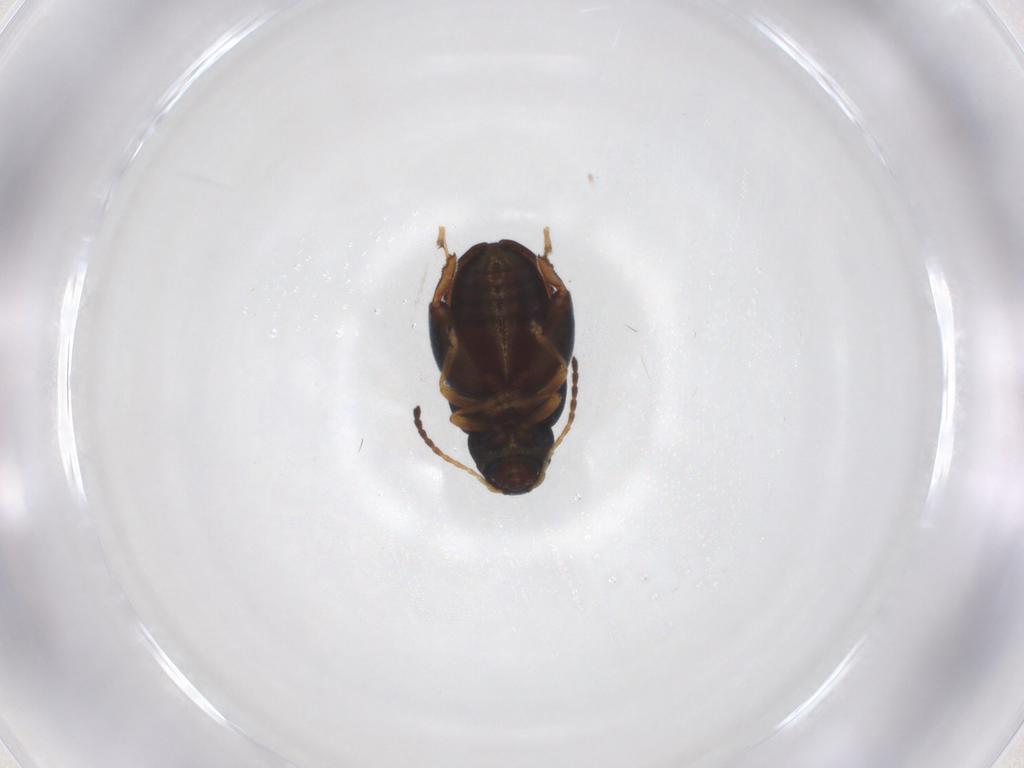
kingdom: Animalia
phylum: Arthropoda
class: Insecta
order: Coleoptera
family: Chrysomelidae
